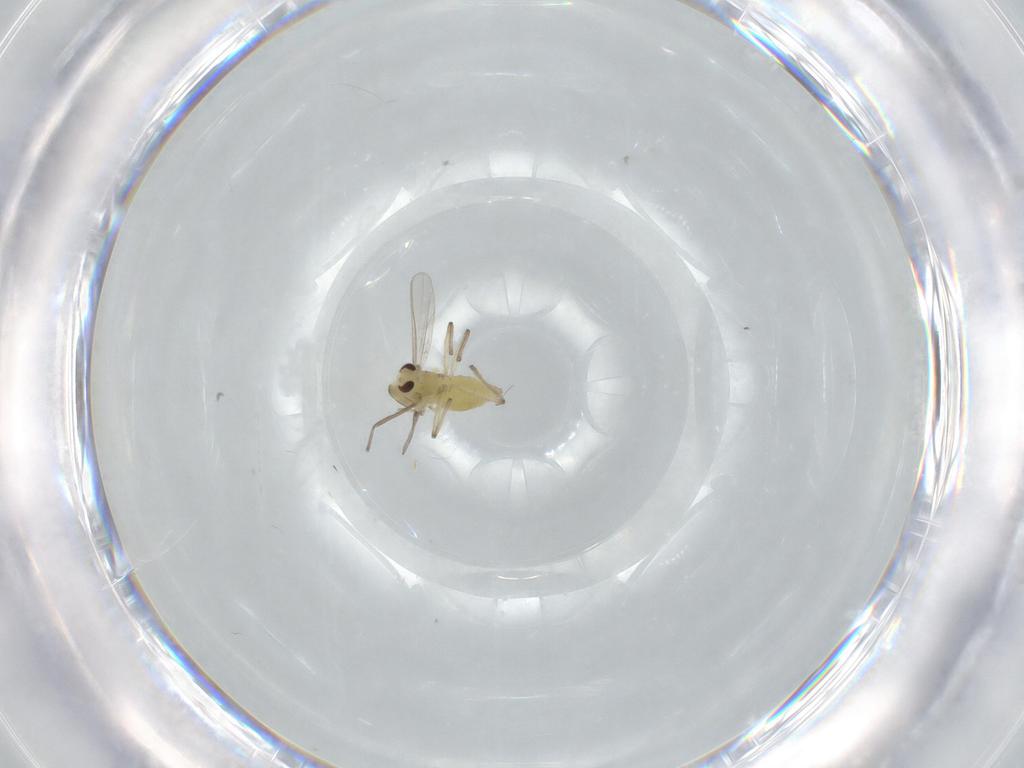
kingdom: Animalia
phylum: Arthropoda
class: Insecta
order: Diptera
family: Chironomidae
